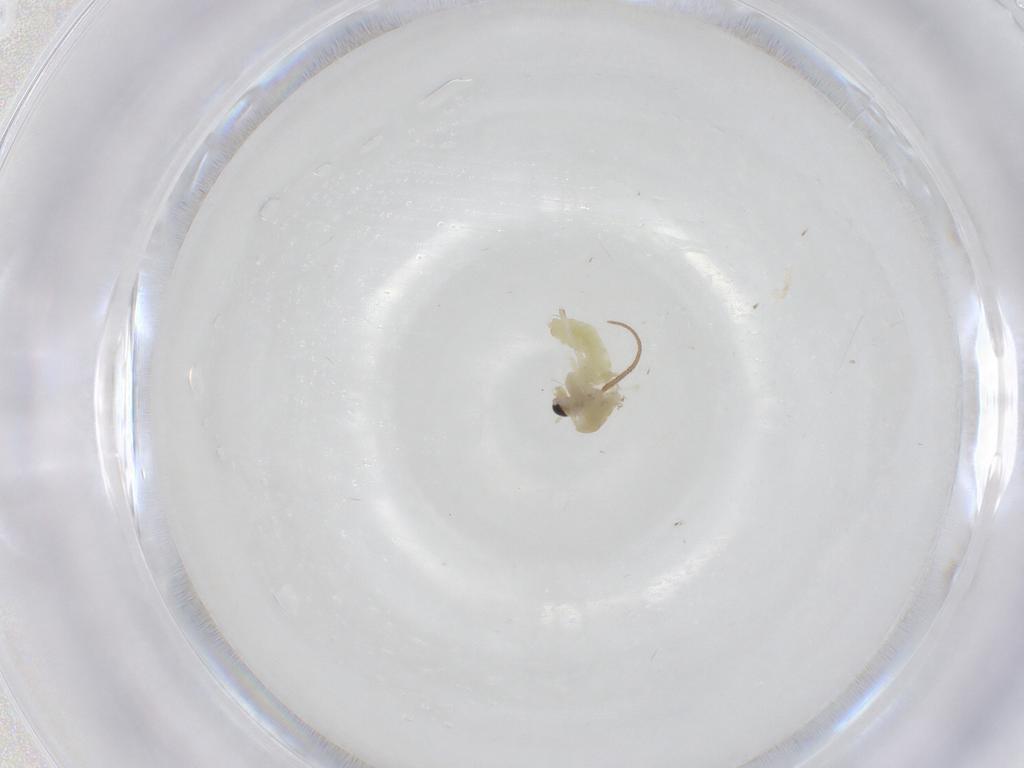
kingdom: Animalia
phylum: Arthropoda
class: Insecta
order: Diptera
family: Chironomidae
